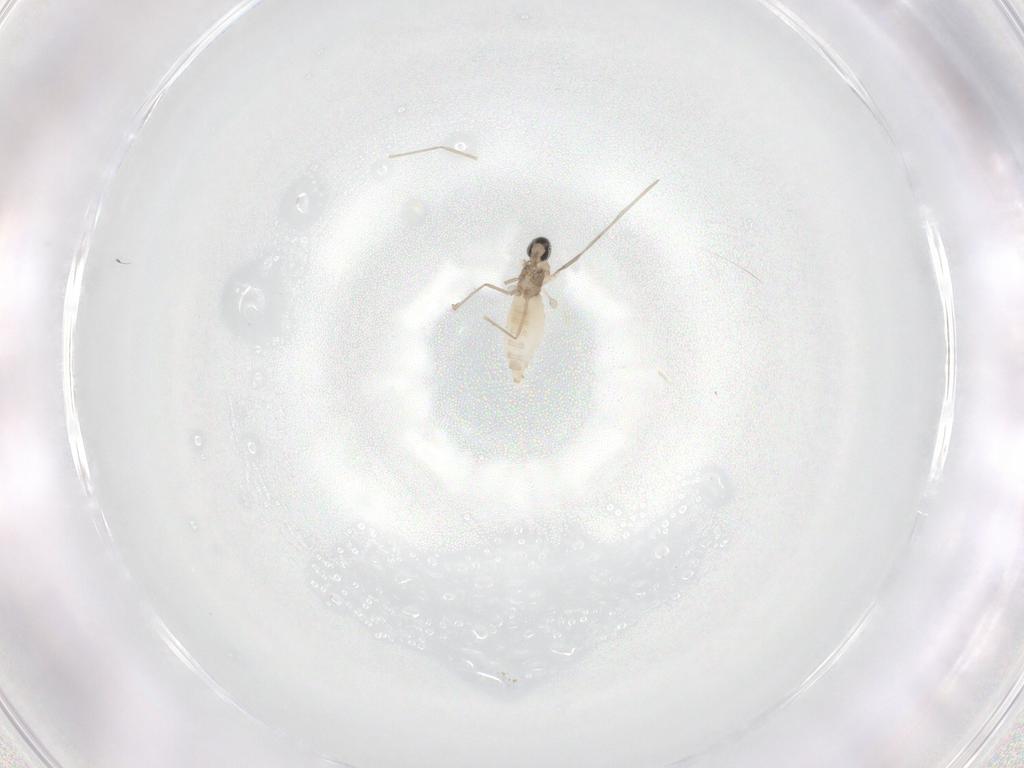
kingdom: Animalia
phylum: Arthropoda
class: Insecta
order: Diptera
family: Cecidomyiidae
